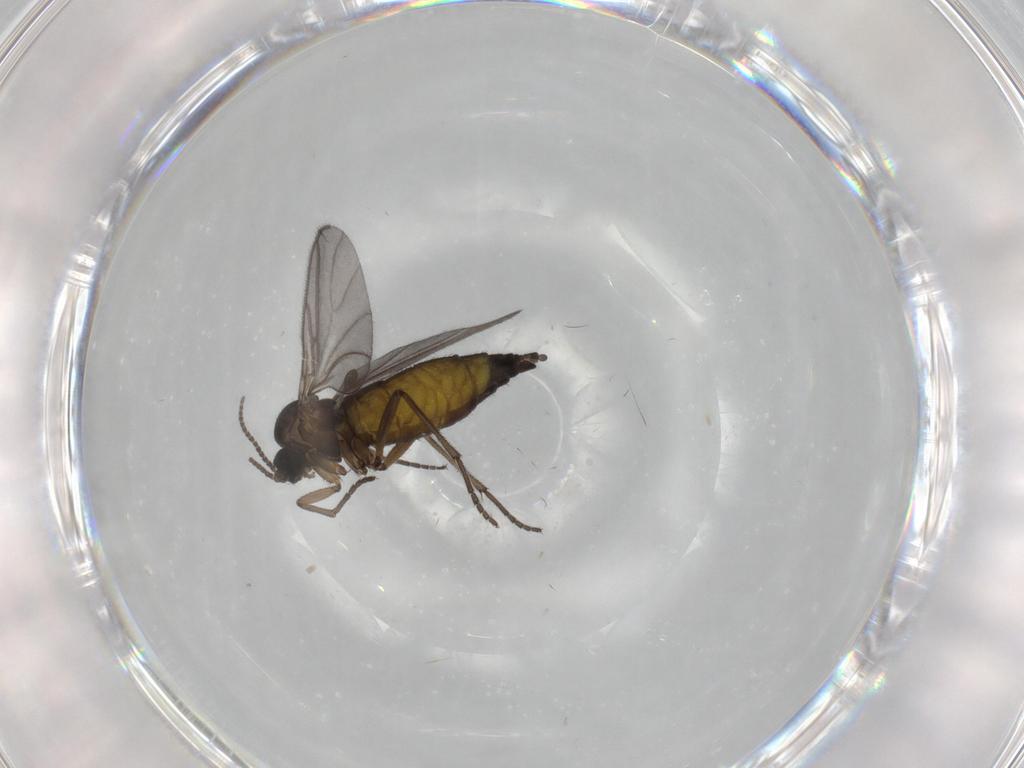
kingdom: Animalia
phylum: Arthropoda
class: Insecta
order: Diptera
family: Sciaridae
